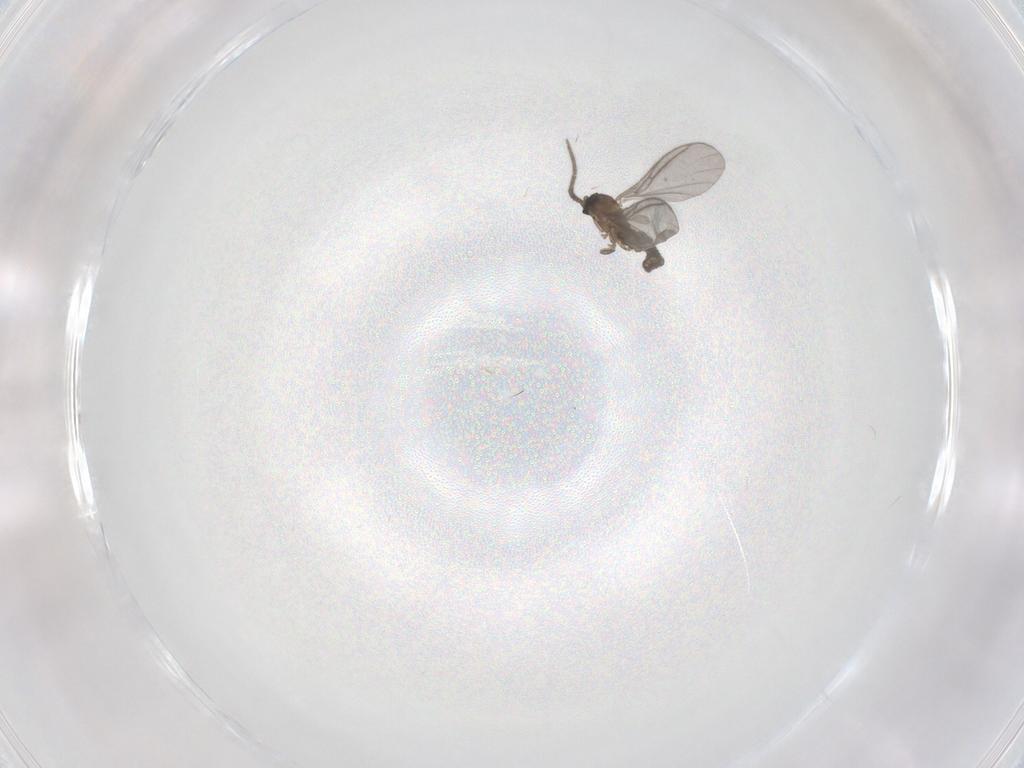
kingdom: Animalia
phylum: Arthropoda
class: Insecta
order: Diptera
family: Sciaridae
